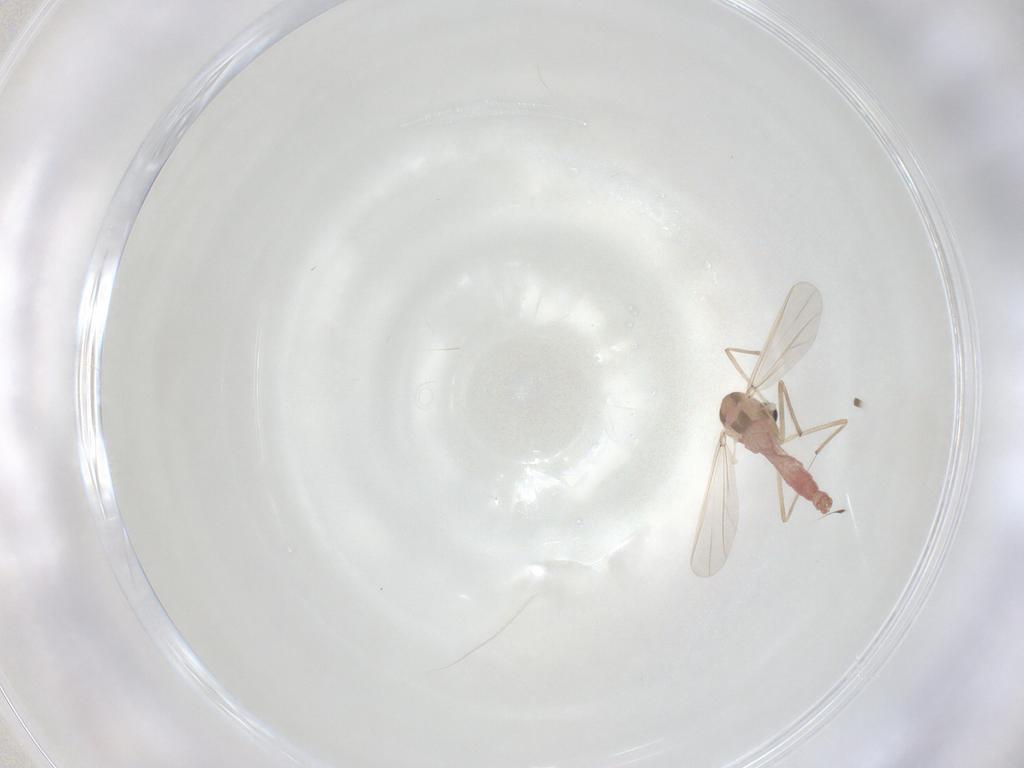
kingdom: Animalia
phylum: Arthropoda
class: Insecta
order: Diptera
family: Chironomidae
